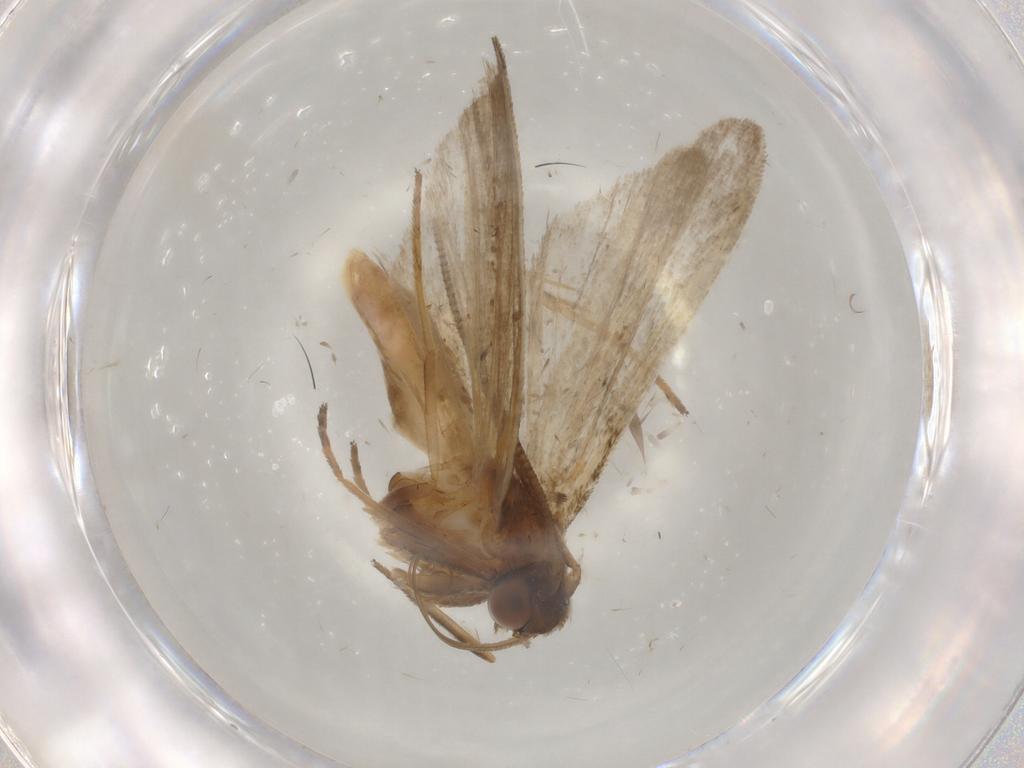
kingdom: Animalia
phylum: Arthropoda
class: Insecta
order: Lepidoptera
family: Noctuidae
